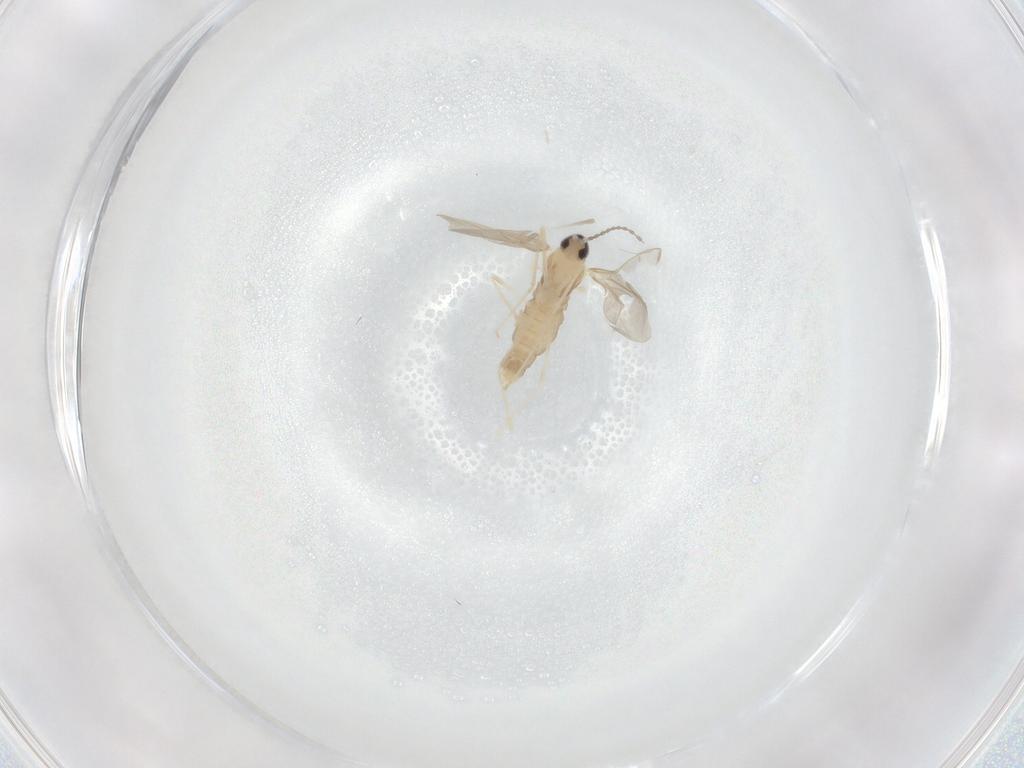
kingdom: Animalia
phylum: Arthropoda
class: Insecta
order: Diptera
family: Cecidomyiidae
